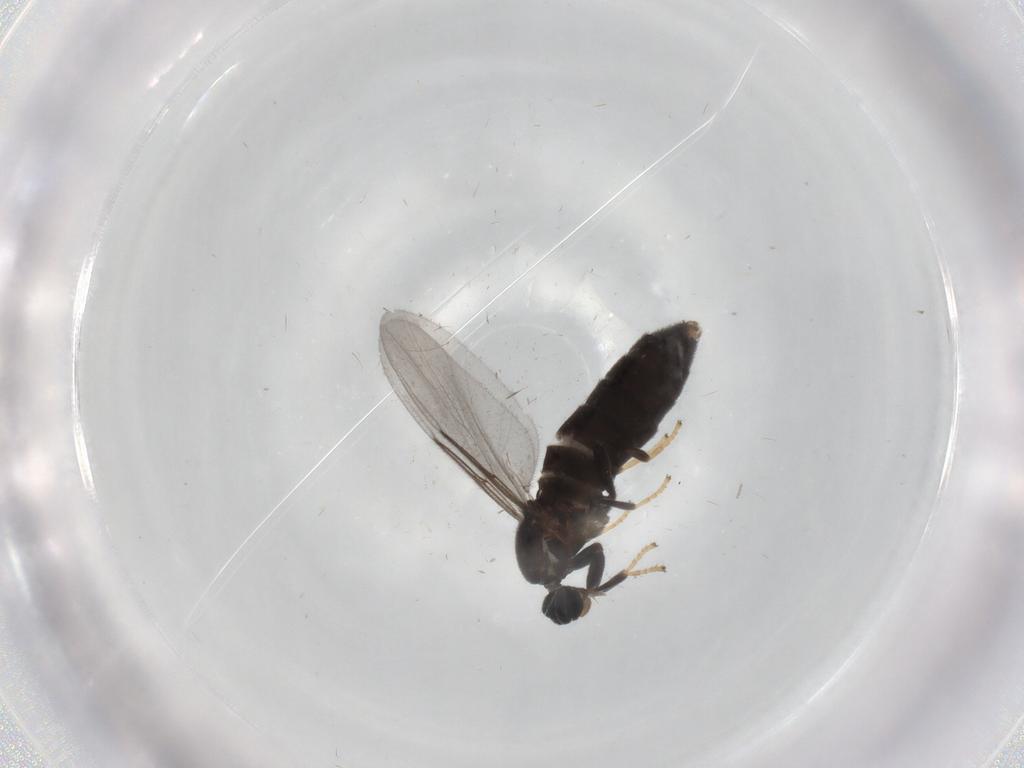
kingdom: Animalia
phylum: Arthropoda
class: Insecta
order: Diptera
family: Scatopsidae
